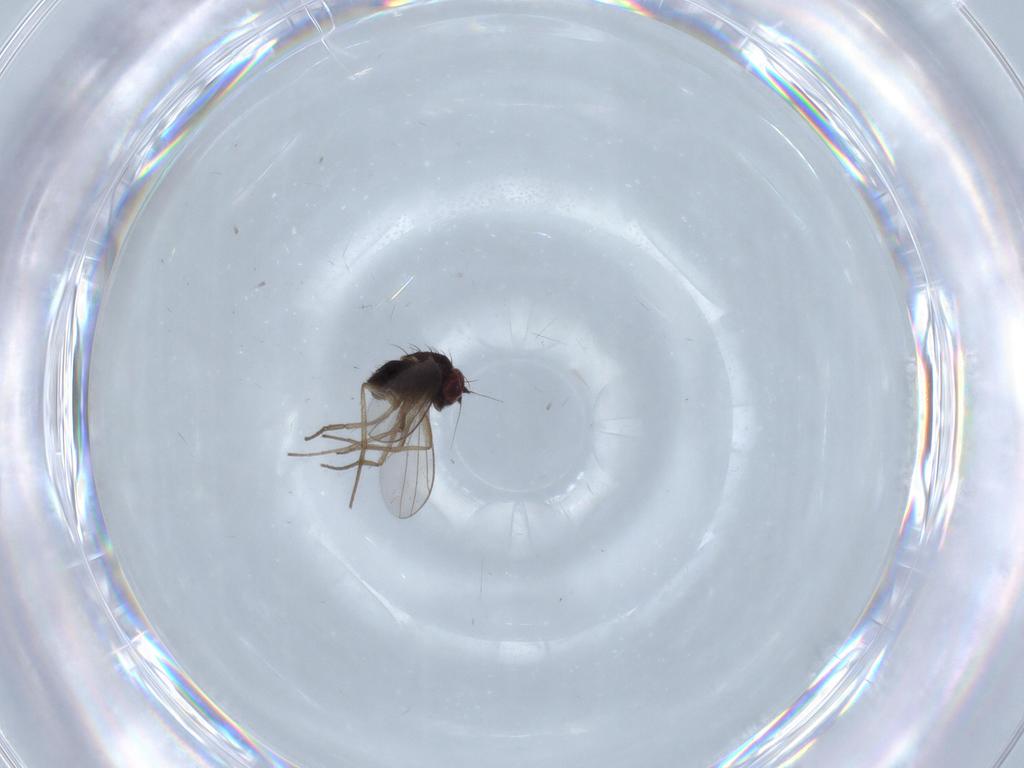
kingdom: Animalia
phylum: Arthropoda
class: Insecta
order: Diptera
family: Dolichopodidae
